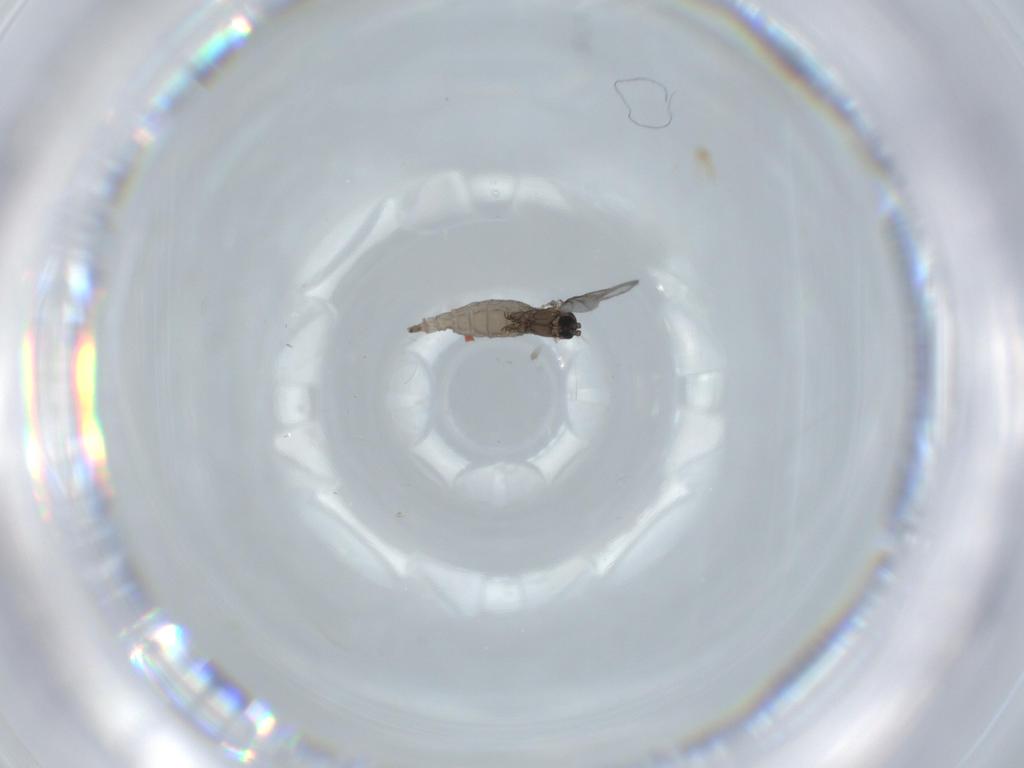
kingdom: Animalia
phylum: Arthropoda
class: Insecta
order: Diptera
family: Sciaridae
